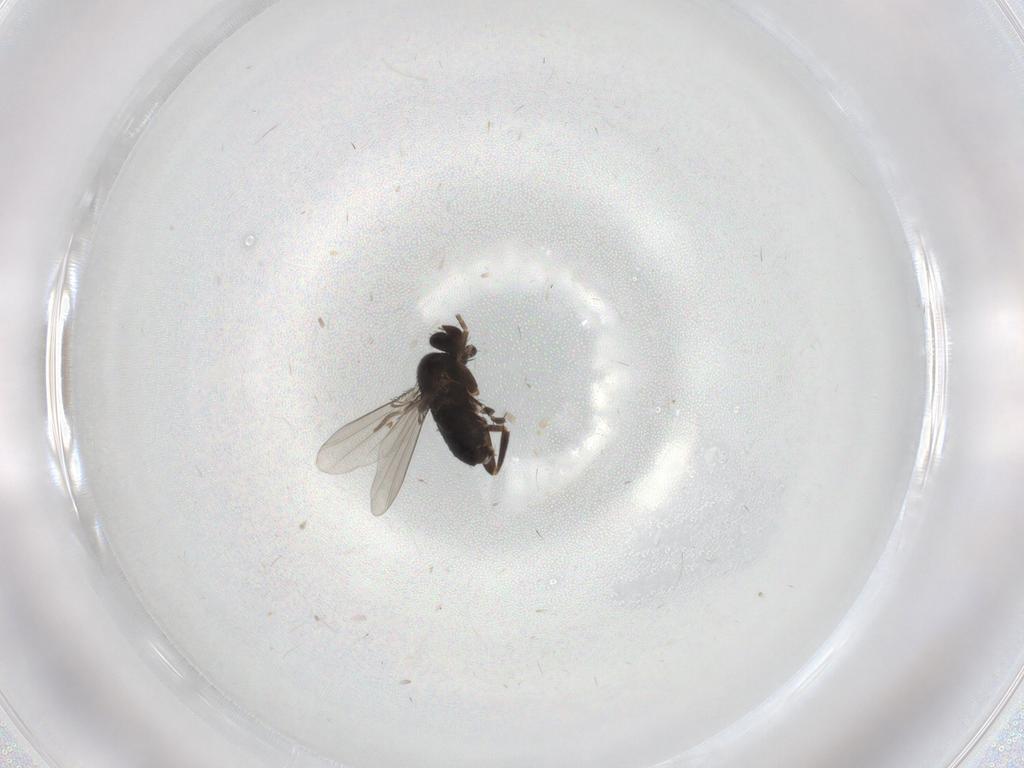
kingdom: Animalia
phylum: Arthropoda
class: Insecta
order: Diptera
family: Phoridae
